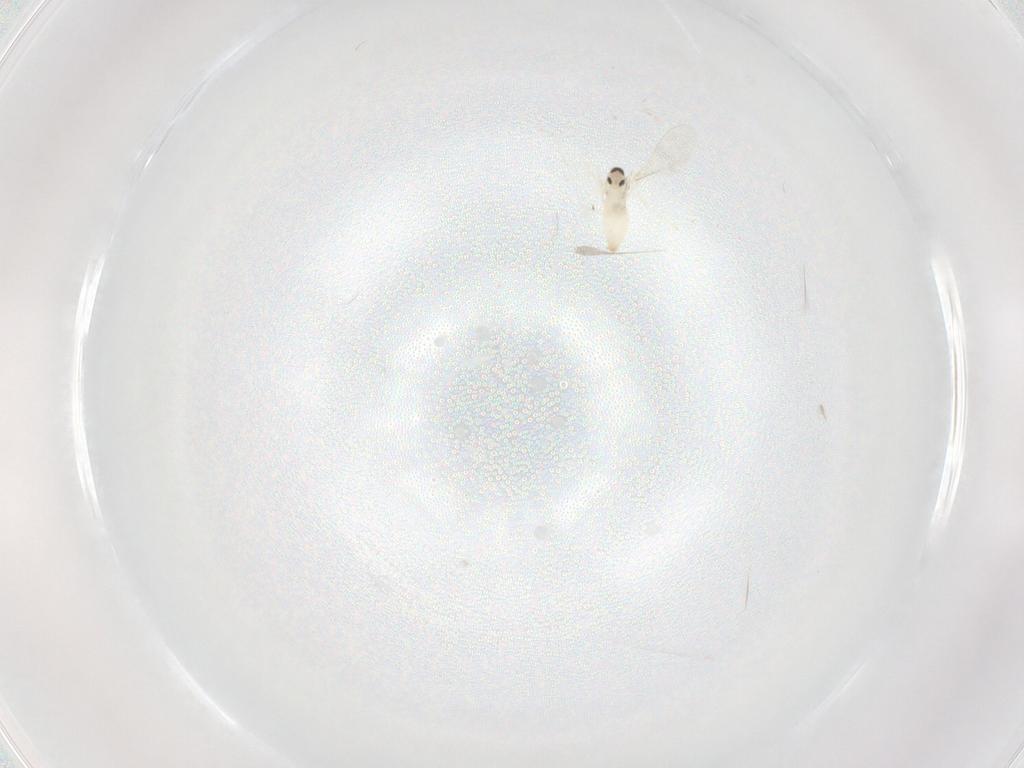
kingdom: Animalia
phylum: Arthropoda
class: Insecta
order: Diptera
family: Cecidomyiidae
